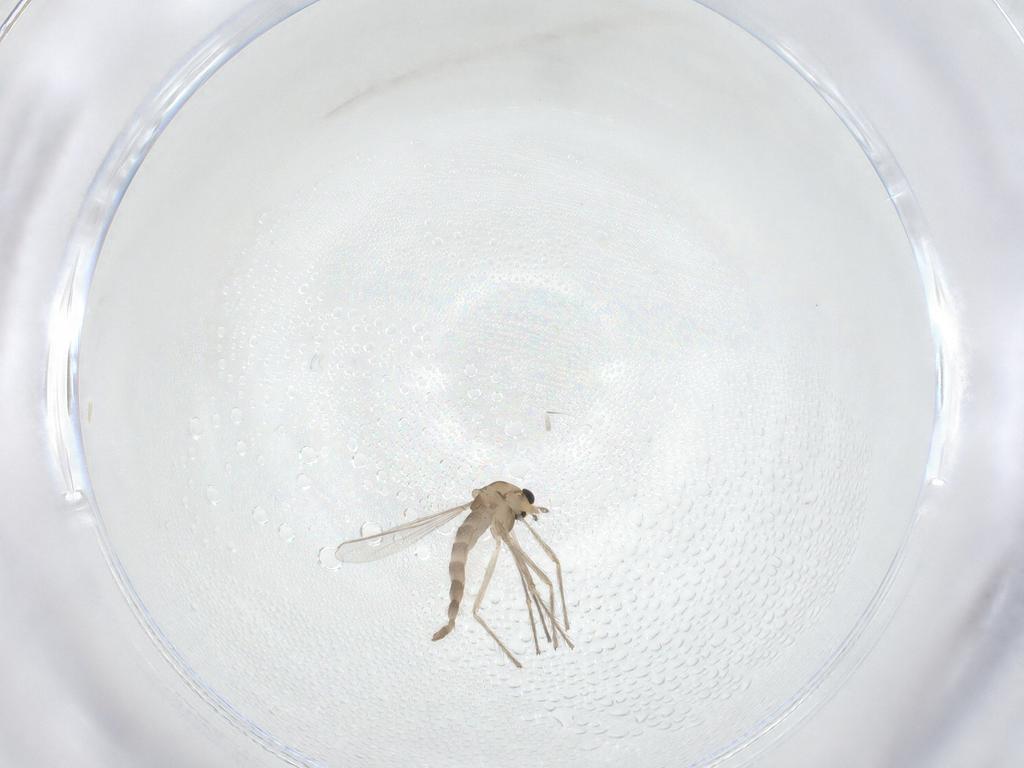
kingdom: Animalia
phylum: Arthropoda
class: Insecta
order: Diptera
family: Chironomidae
